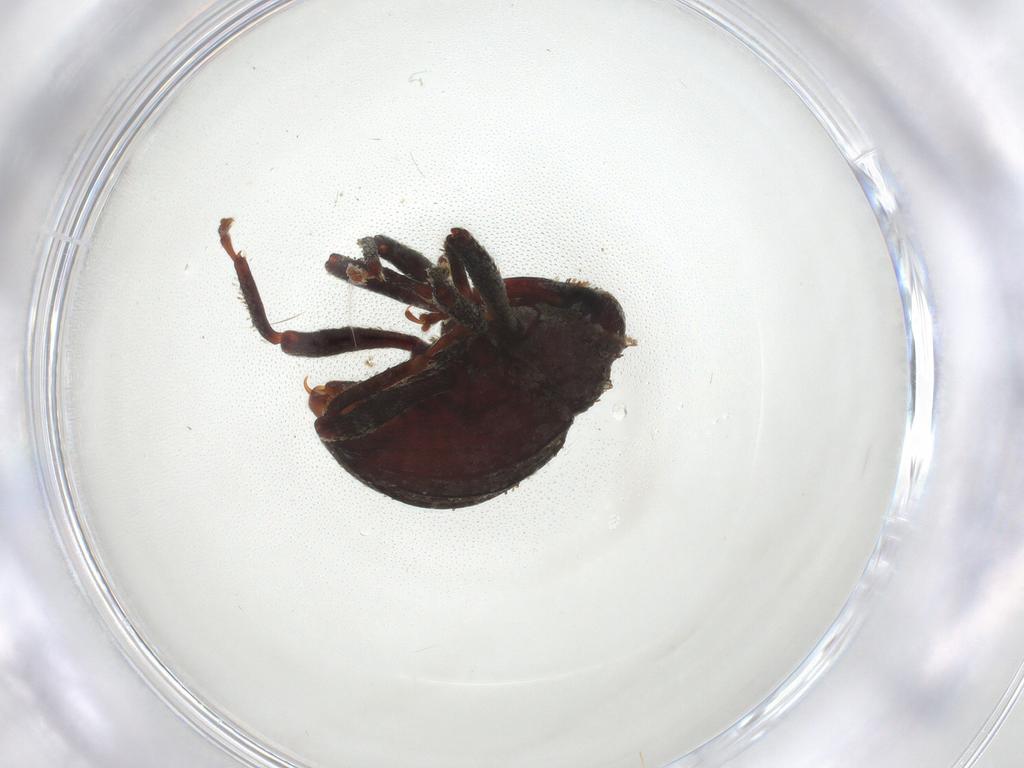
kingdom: Animalia
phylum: Arthropoda
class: Insecta
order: Coleoptera
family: Curculionidae
